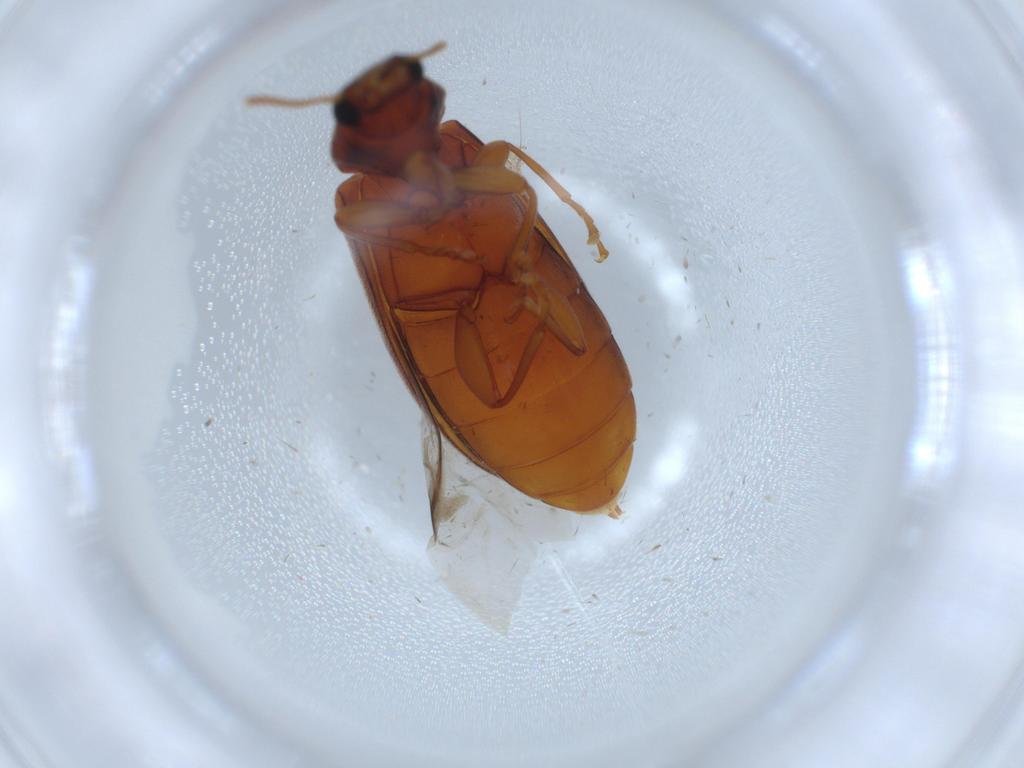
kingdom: Animalia
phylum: Arthropoda
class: Insecta
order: Coleoptera
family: Mycteridae
